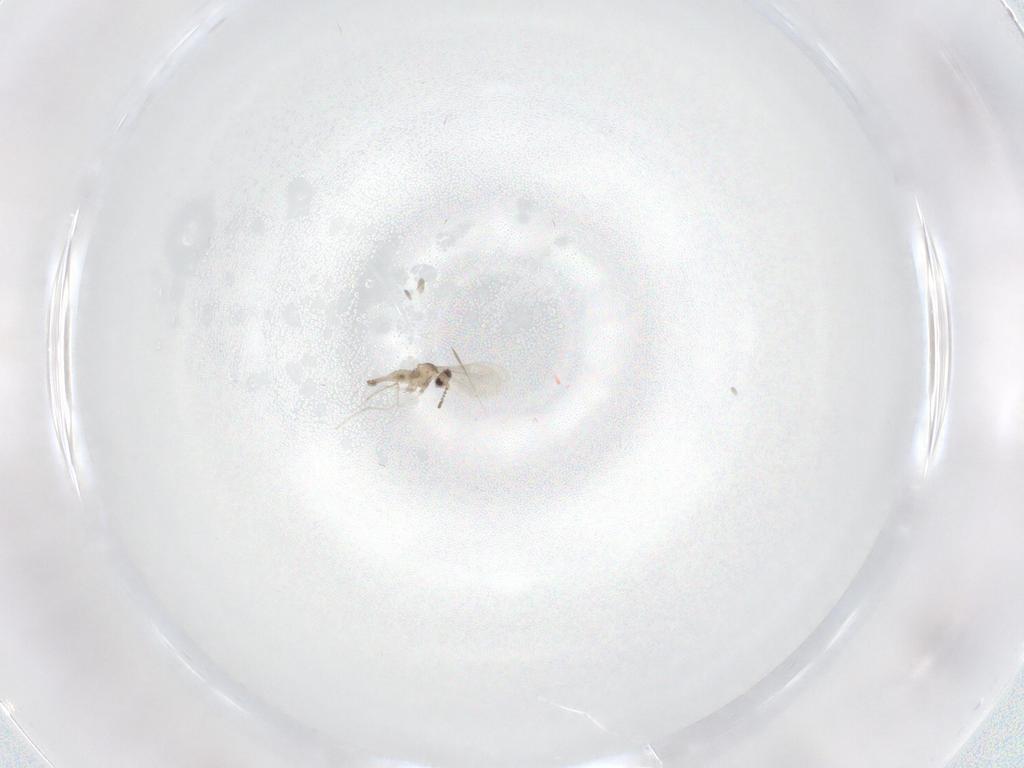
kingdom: Animalia
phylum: Arthropoda
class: Insecta
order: Diptera
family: Cecidomyiidae
